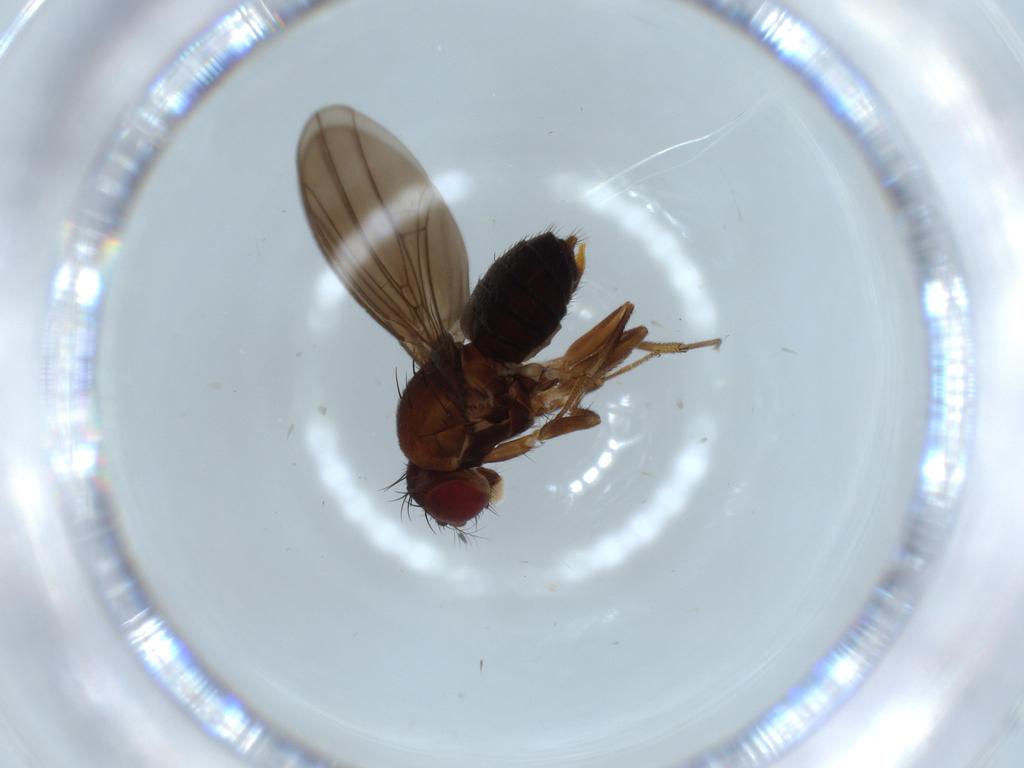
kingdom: Animalia
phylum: Arthropoda
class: Insecta
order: Diptera
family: Drosophilidae
